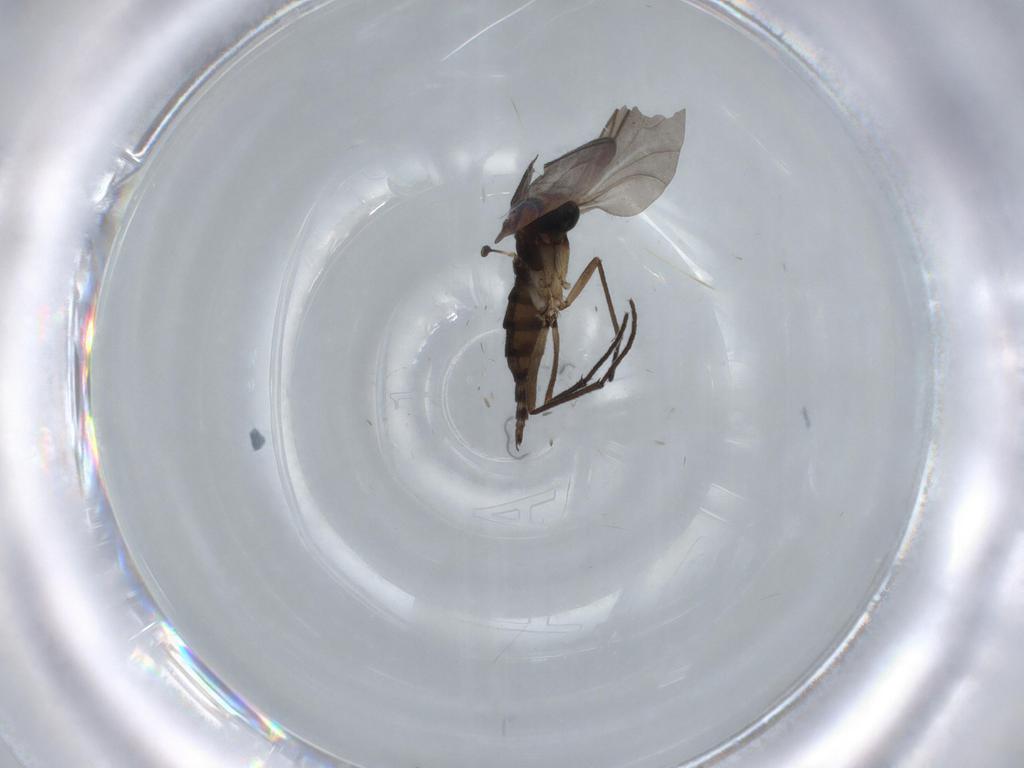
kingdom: Animalia
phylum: Arthropoda
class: Insecta
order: Diptera
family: Sciaridae
